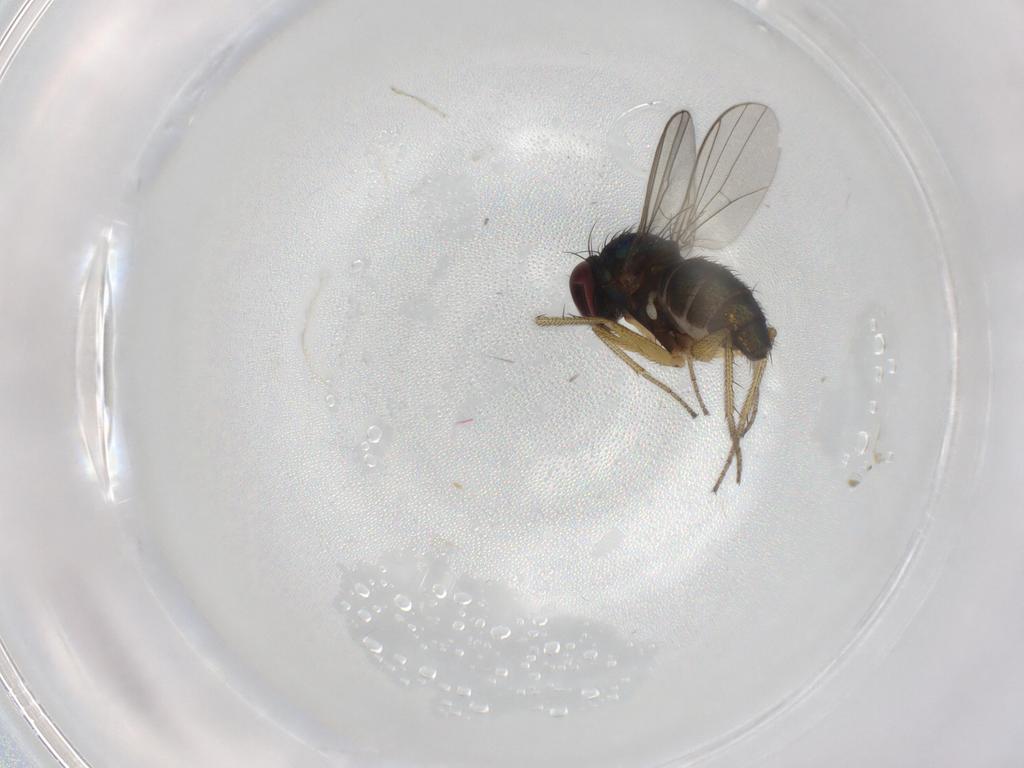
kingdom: Animalia
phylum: Arthropoda
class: Insecta
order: Diptera
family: Dolichopodidae
